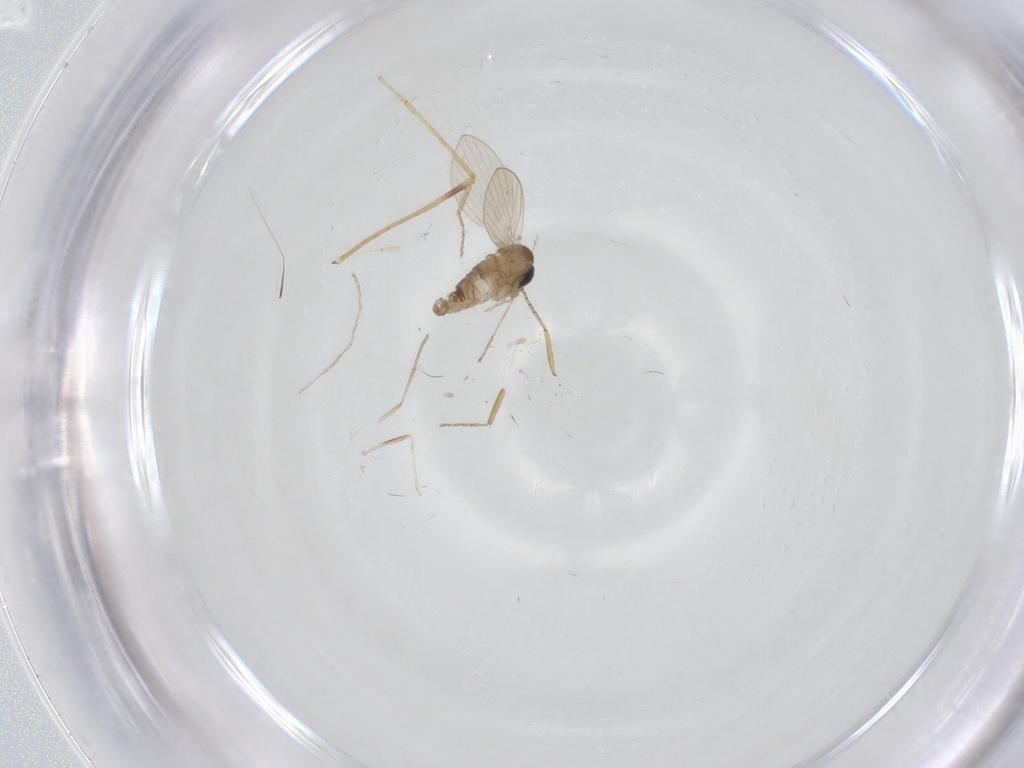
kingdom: Animalia
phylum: Arthropoda
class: Insecta
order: Diptera
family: Psychodidae
